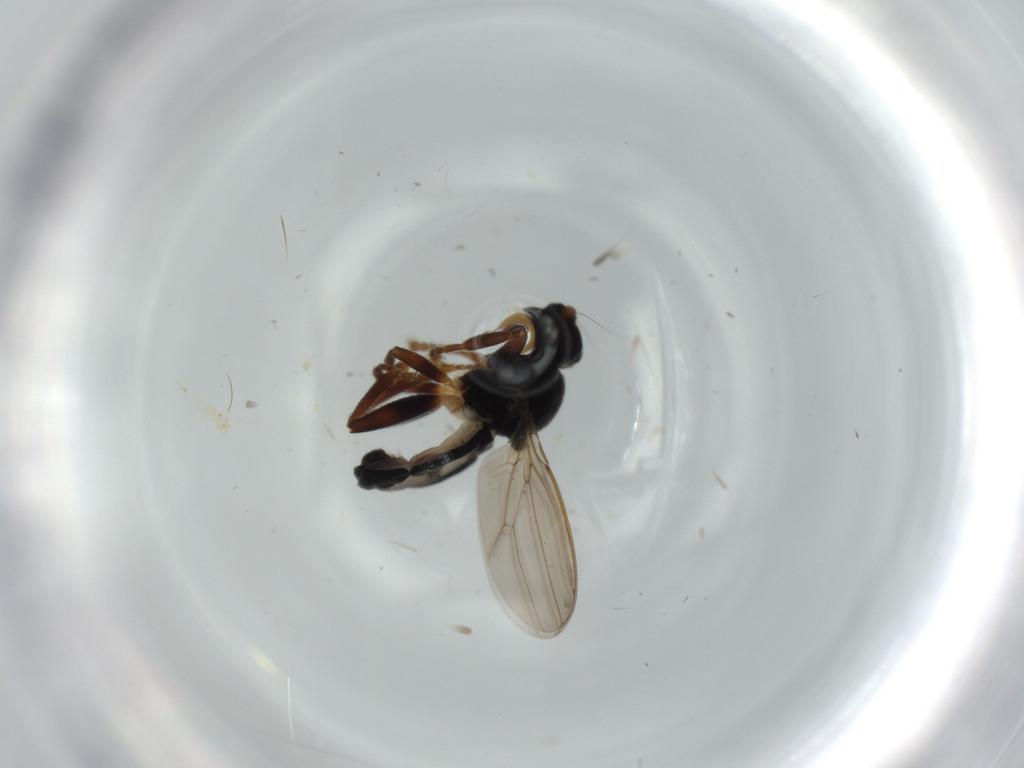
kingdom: Animalia
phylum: Arthropoda
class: Insecta
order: Diptera
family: Sphaeroceridae
